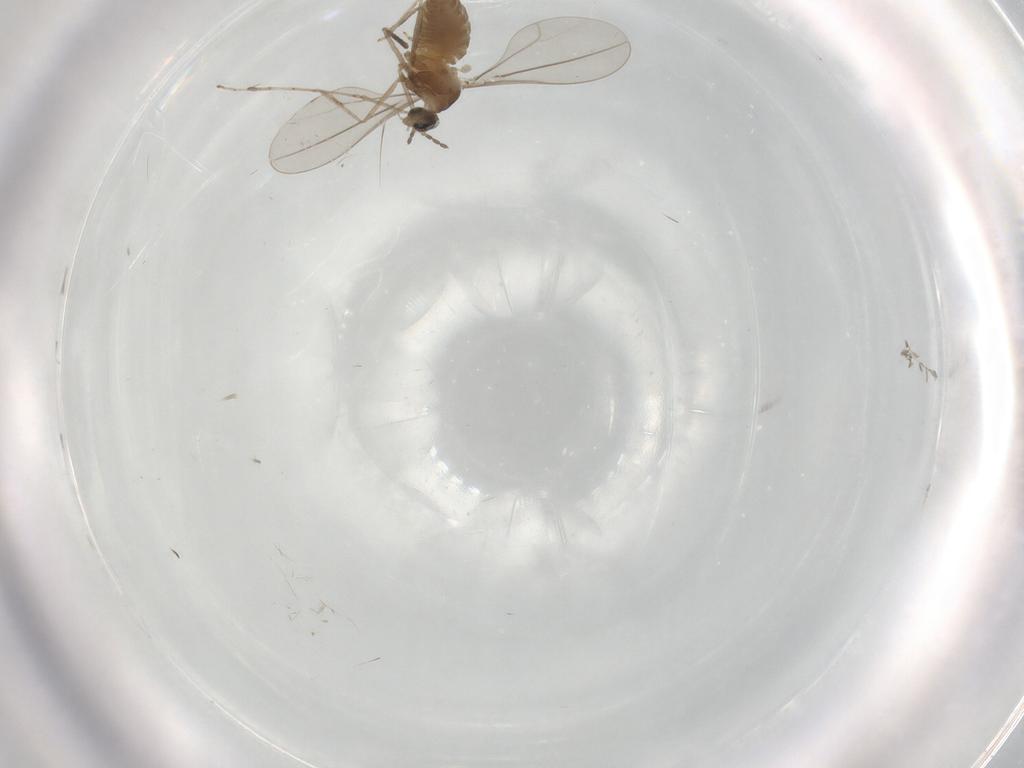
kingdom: Animalia
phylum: Arthropoda
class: Insecta
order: Diptera
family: Cecidomyiidae
